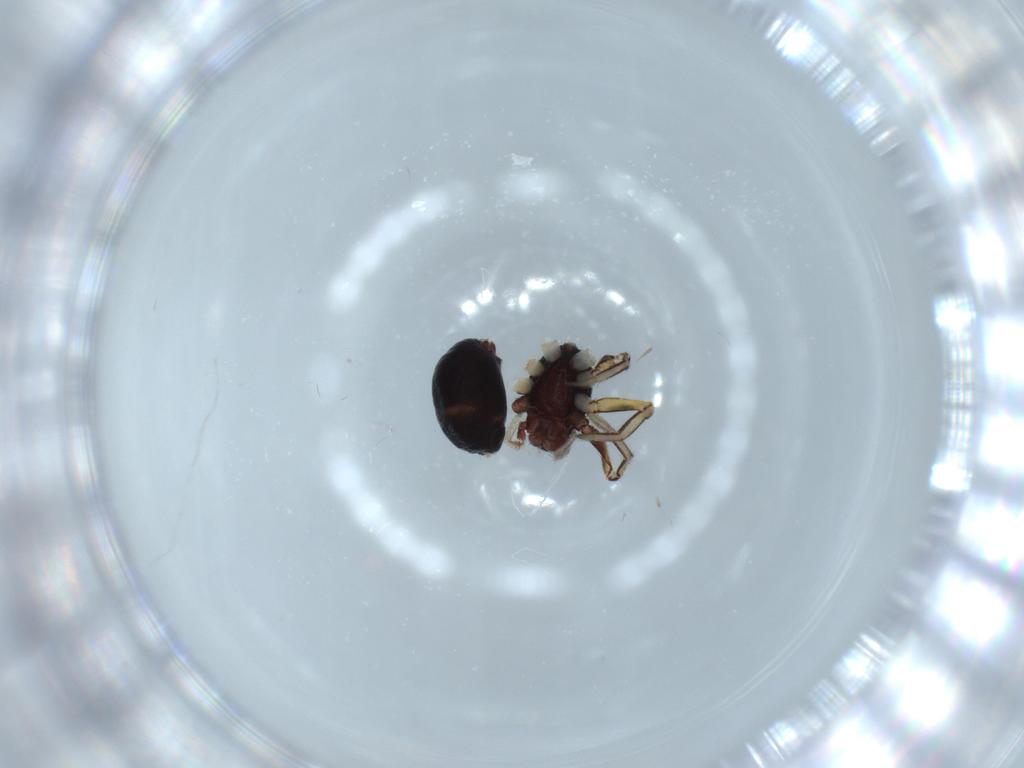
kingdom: Animalia
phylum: Arthropoda
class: Arachnida
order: Araneae
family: Corinnidae
